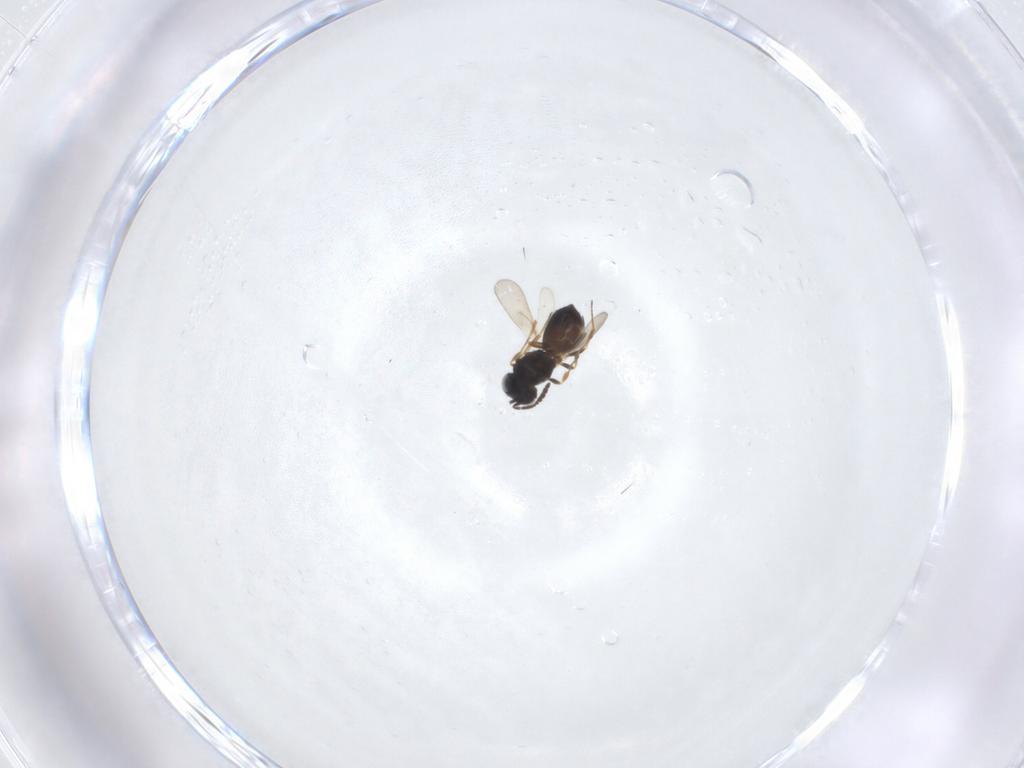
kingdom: Animalia
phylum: Arthropoda
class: Insecta
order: Hymenoptera
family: Scelionidae
